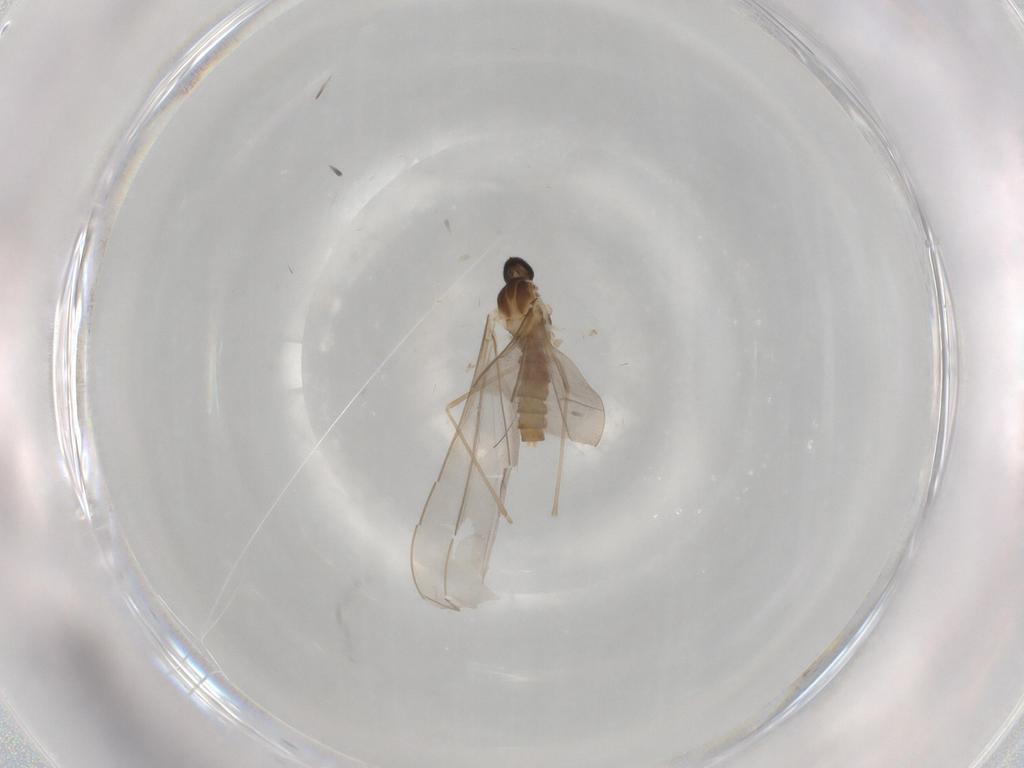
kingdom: Animalia
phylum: Arthropoda
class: Insecta
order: Diptera
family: Cecidomyiidae
